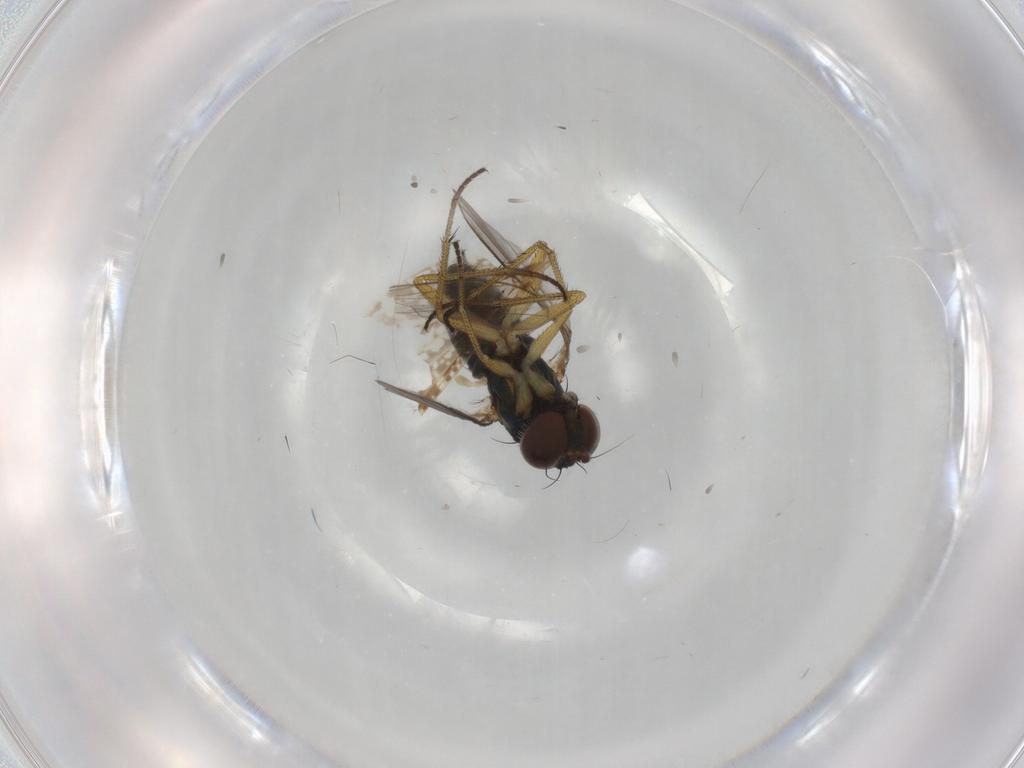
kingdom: Animalia
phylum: Arthropoda
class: Insecta
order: Diptera
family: Dolichopodidae
